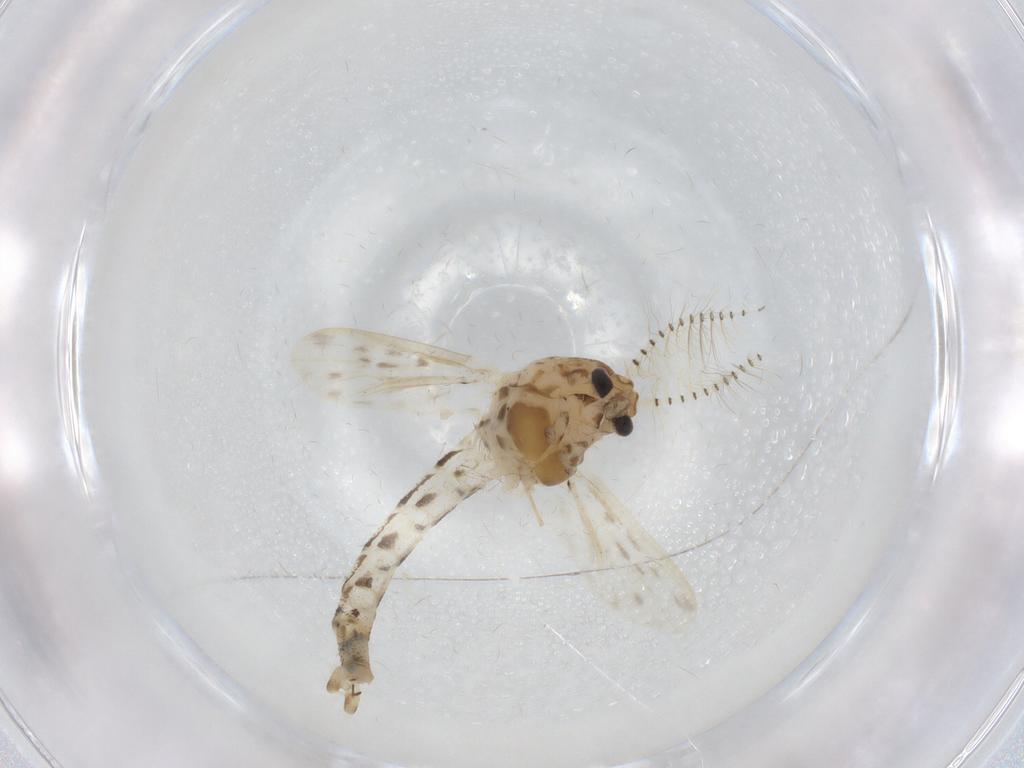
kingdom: Animalia
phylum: Arthropoda
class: Insecta
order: Diptera
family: Chaoboridae
